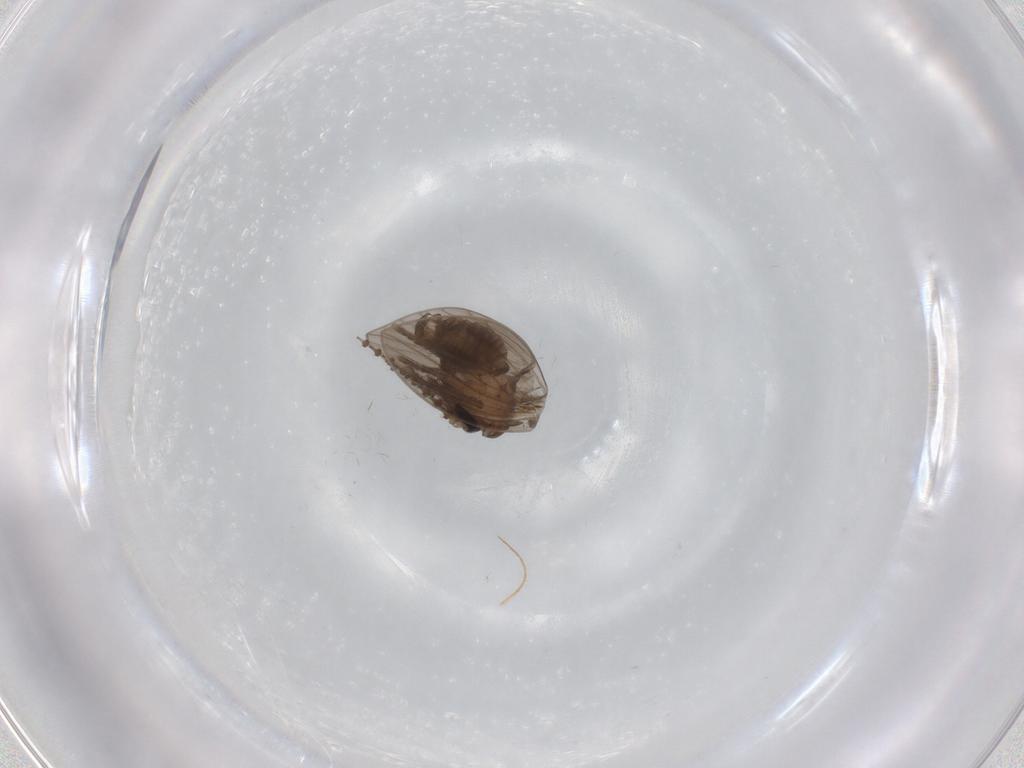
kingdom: Animalia
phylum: Arthropoda
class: Insecta
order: Diptera
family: Psychodidae
